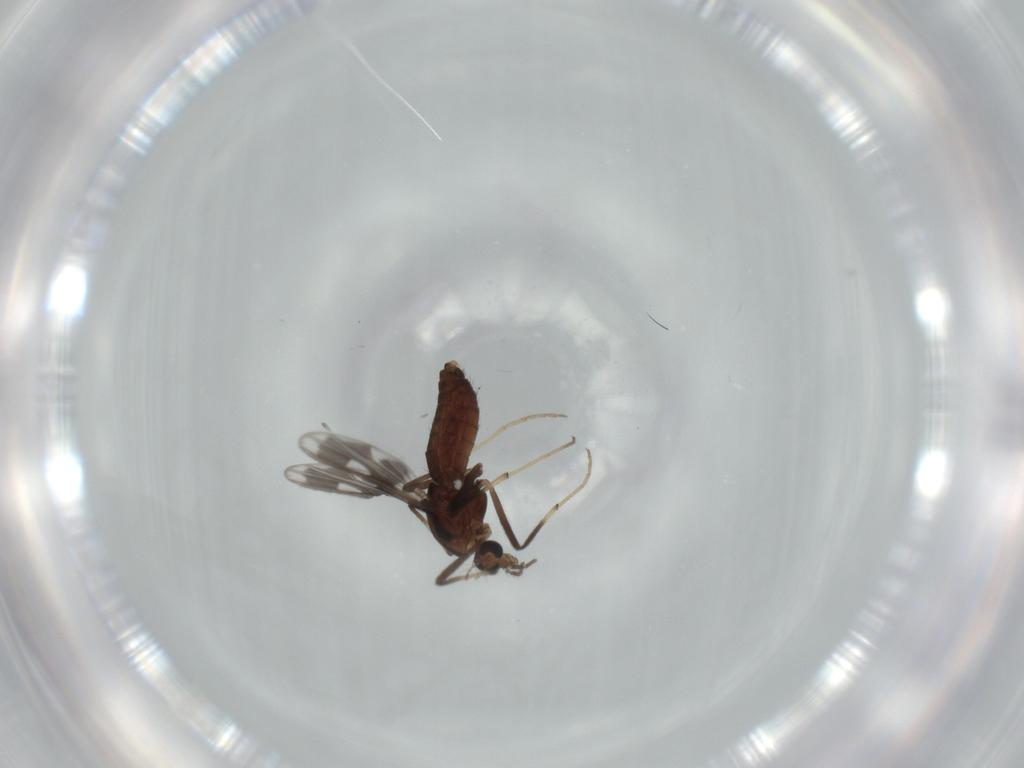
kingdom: Animalia
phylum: Arthropoda
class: Insecta
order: Diptera
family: Chironomidae
